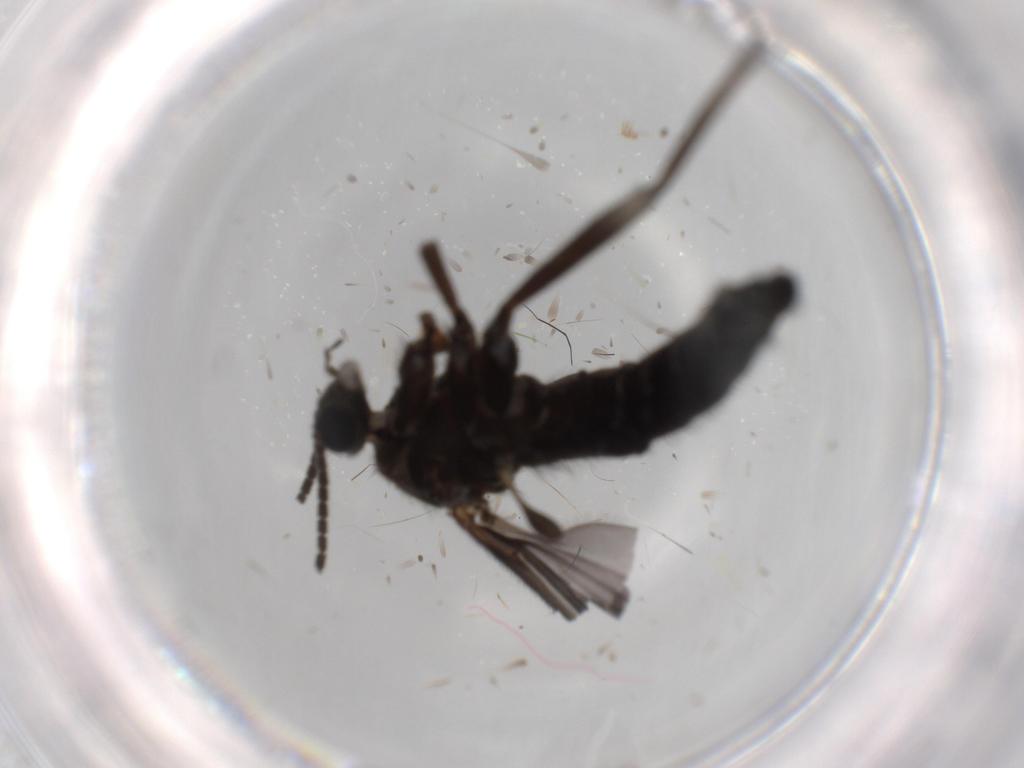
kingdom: Animalia
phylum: Arthropoda
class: Insecta
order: Diptera
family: Sciaridae
